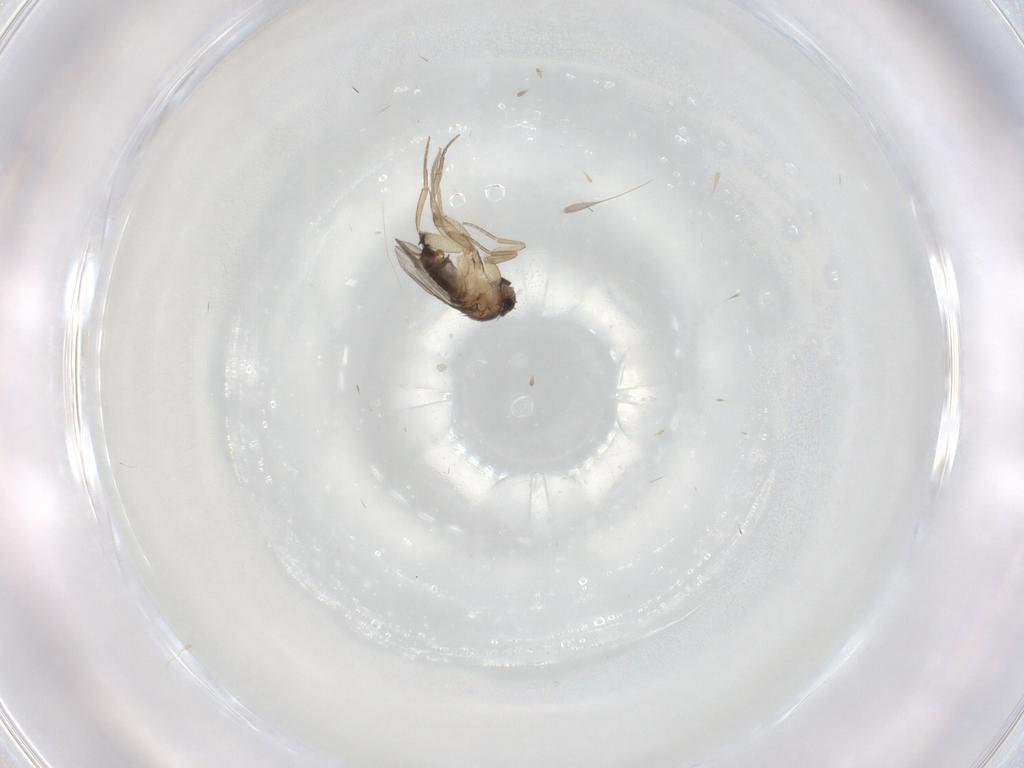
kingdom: Animalia
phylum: Arthropoda
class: Insecta
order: Diptera
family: Phoridae
